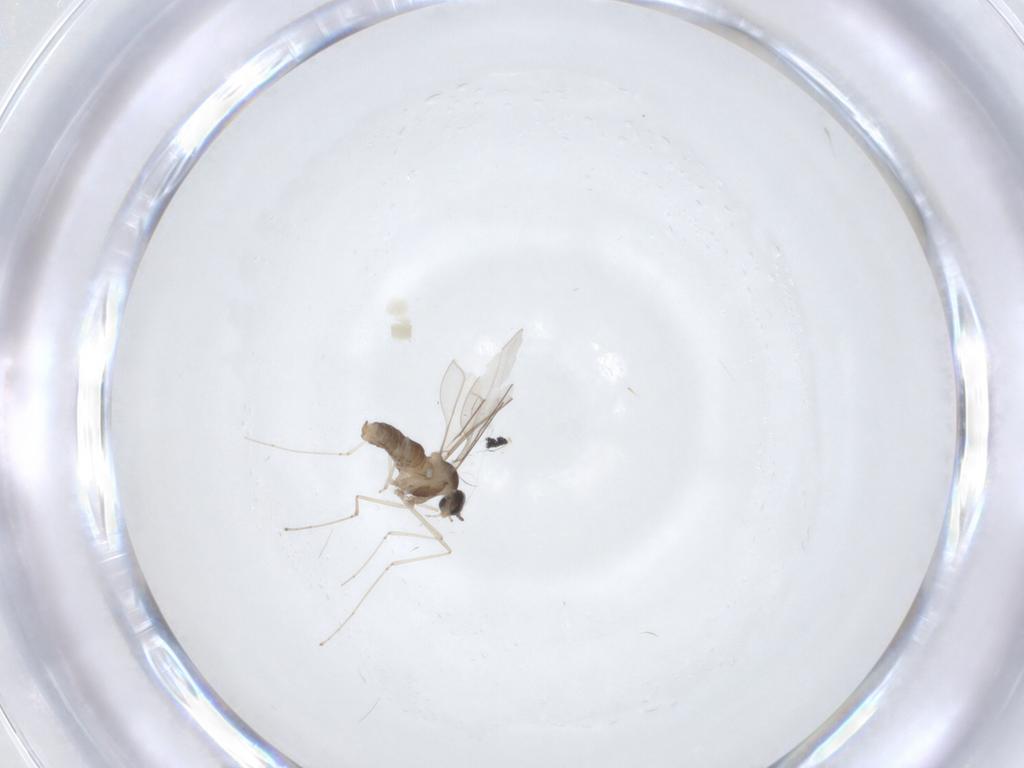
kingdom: Animalia
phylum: Arthropoda
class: Insecta
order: Diptera
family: Cecidomyiidae
